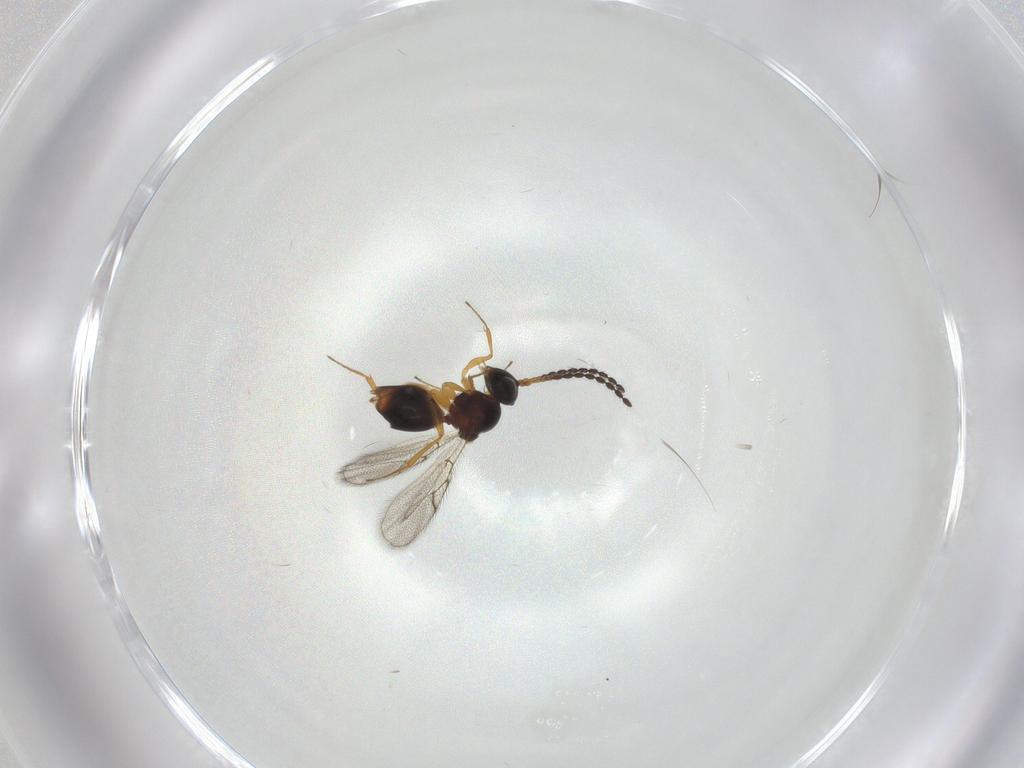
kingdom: Animalia
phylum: Arthropoda
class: Insecta
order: Hymenoptera
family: Figitidae
